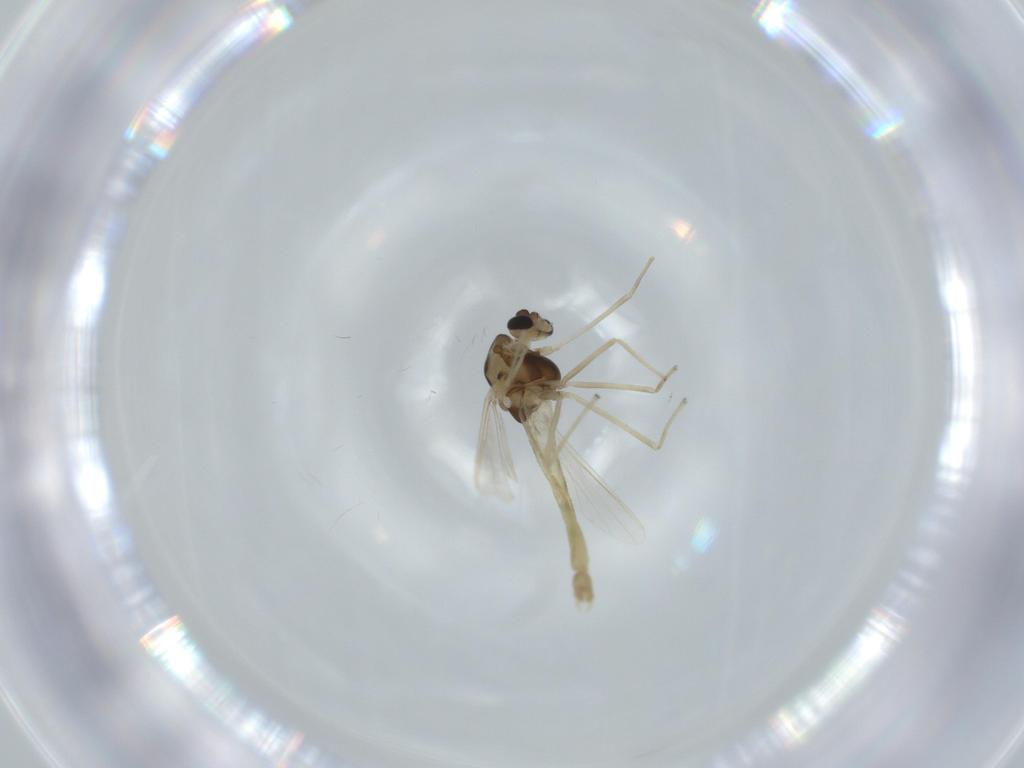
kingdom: Animalia
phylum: Arthropoda
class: Insecta
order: Diptera
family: Chironomidae
